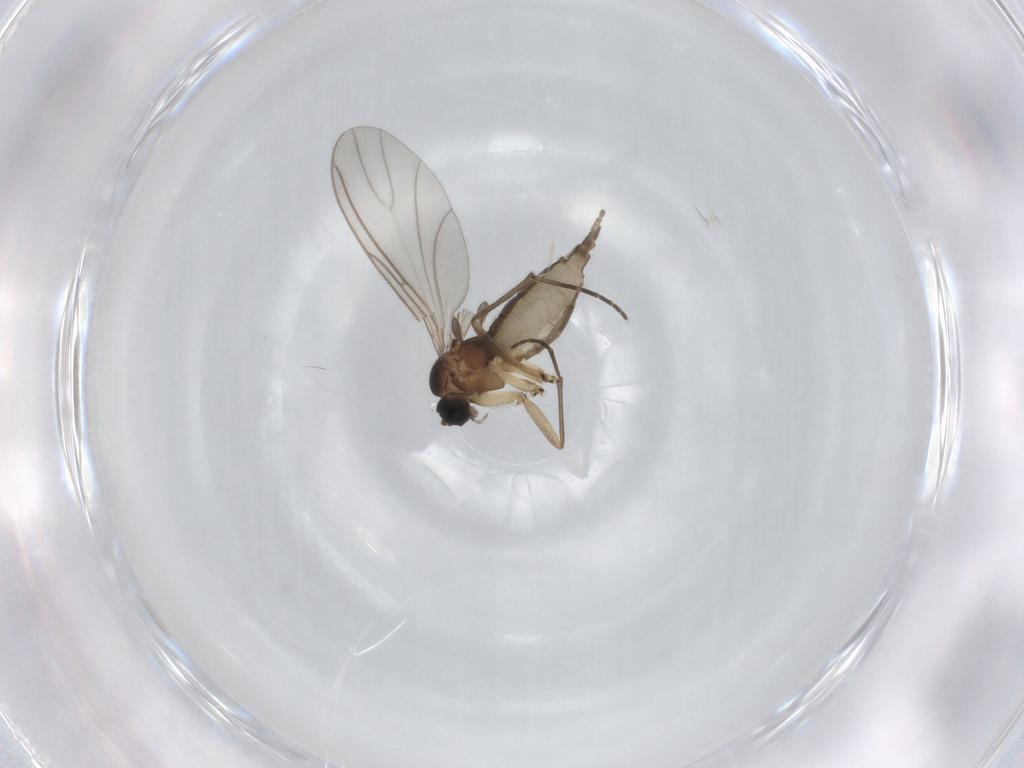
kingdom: Animalia
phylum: Arthropoda
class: Insecta
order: Diptera
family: Sciaridae
